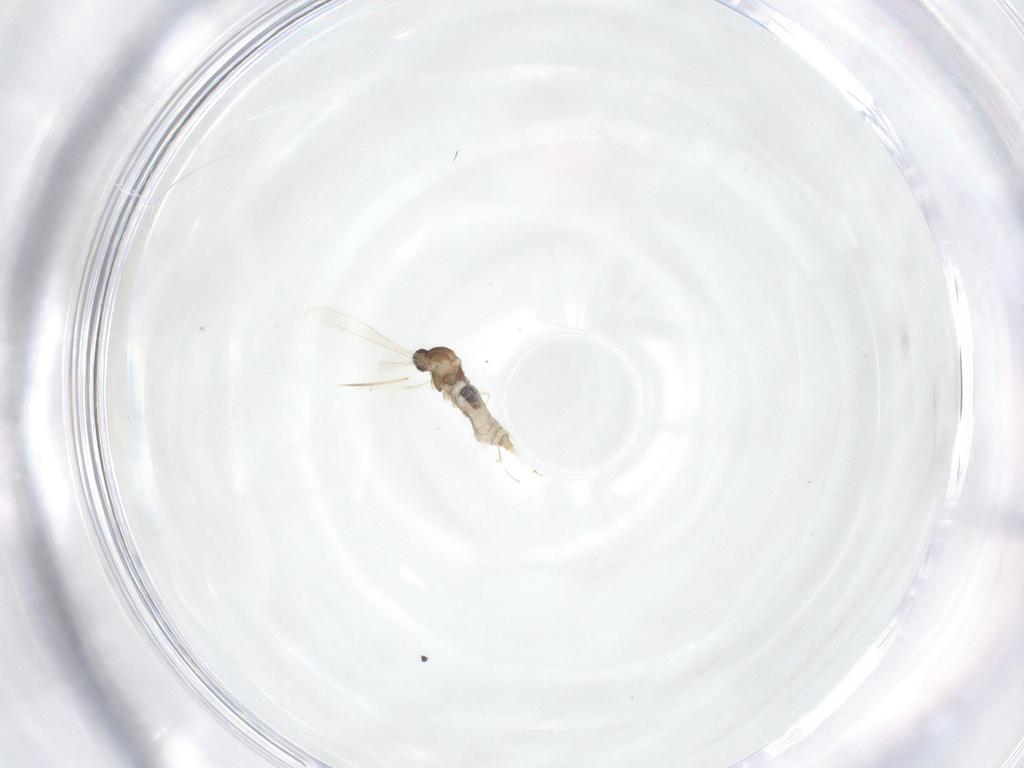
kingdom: Animalia
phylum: Arthropoda
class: Insecta
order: Diptera
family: Cecidomyiidae
